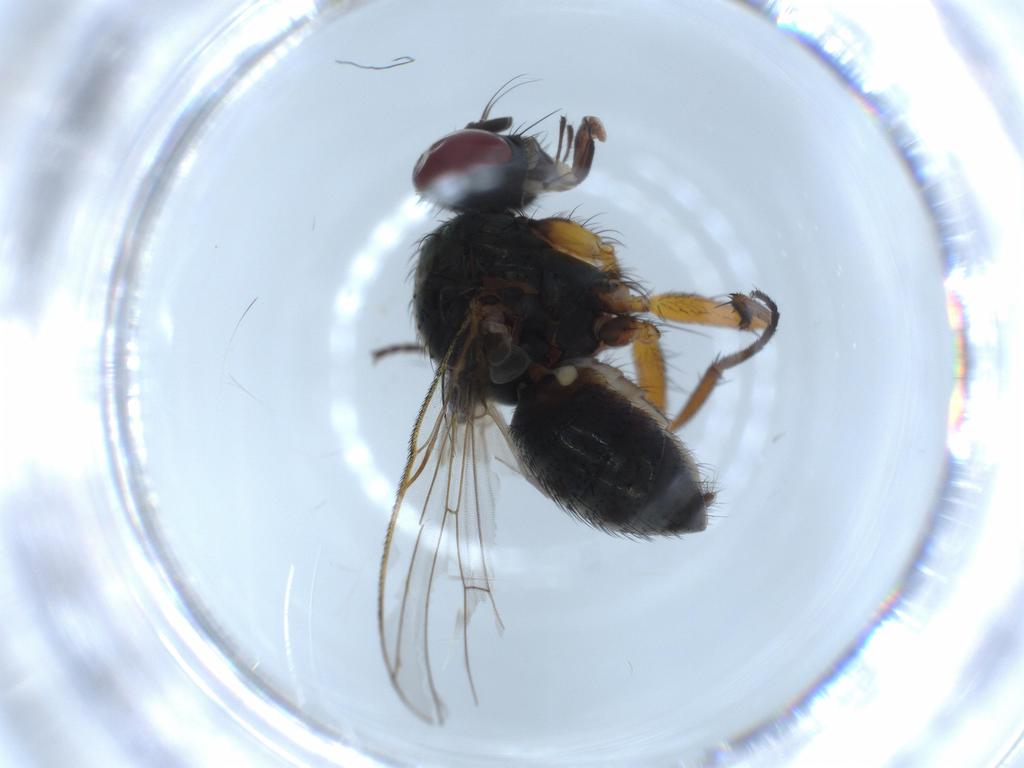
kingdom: Animalia
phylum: Arthropoda
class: Insecta
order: Diptera
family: Muscidae
